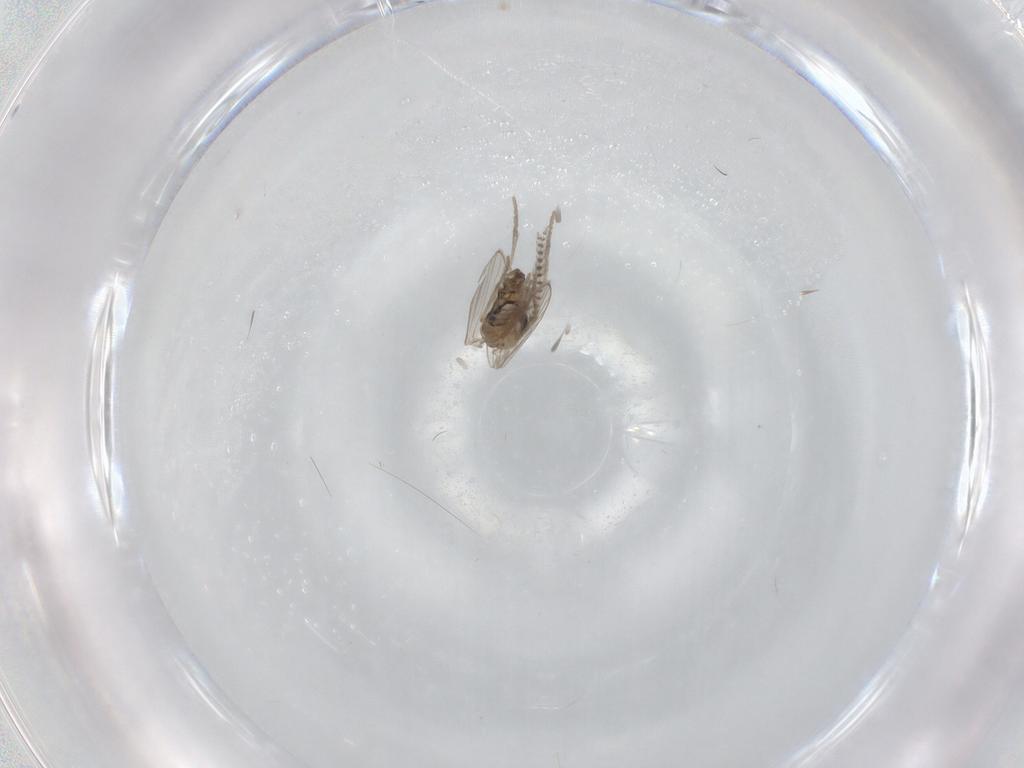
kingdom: Animalia
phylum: Arthropoda
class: Insecta
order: Diptera
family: Psychodidae
